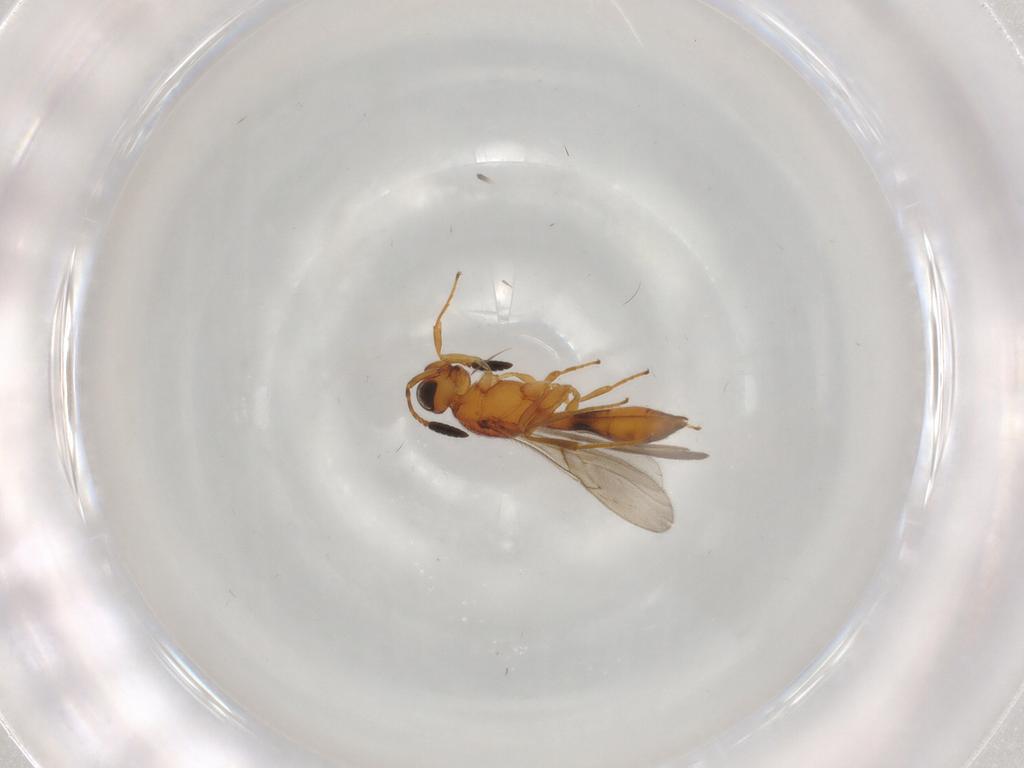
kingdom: Animalia
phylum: Arthropoda
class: Insecta
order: Hymenoptera
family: Scelionidae
